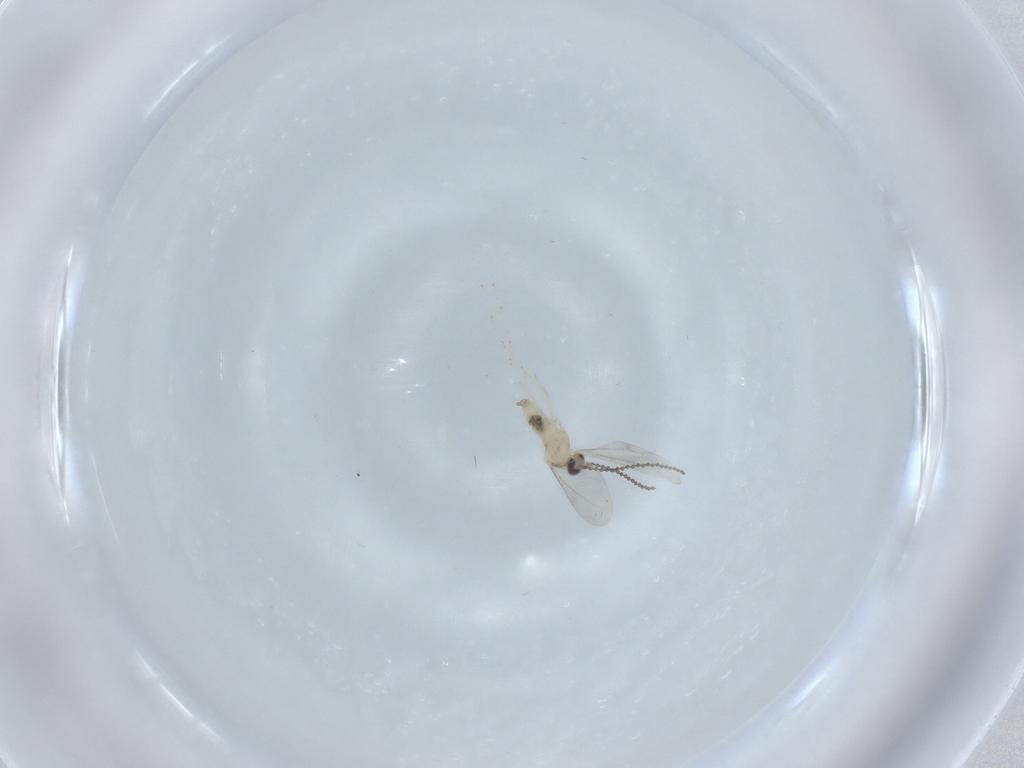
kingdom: Animalia
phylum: Arthropoda
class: Insecta
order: Diptera
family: Cecidomyiidae
